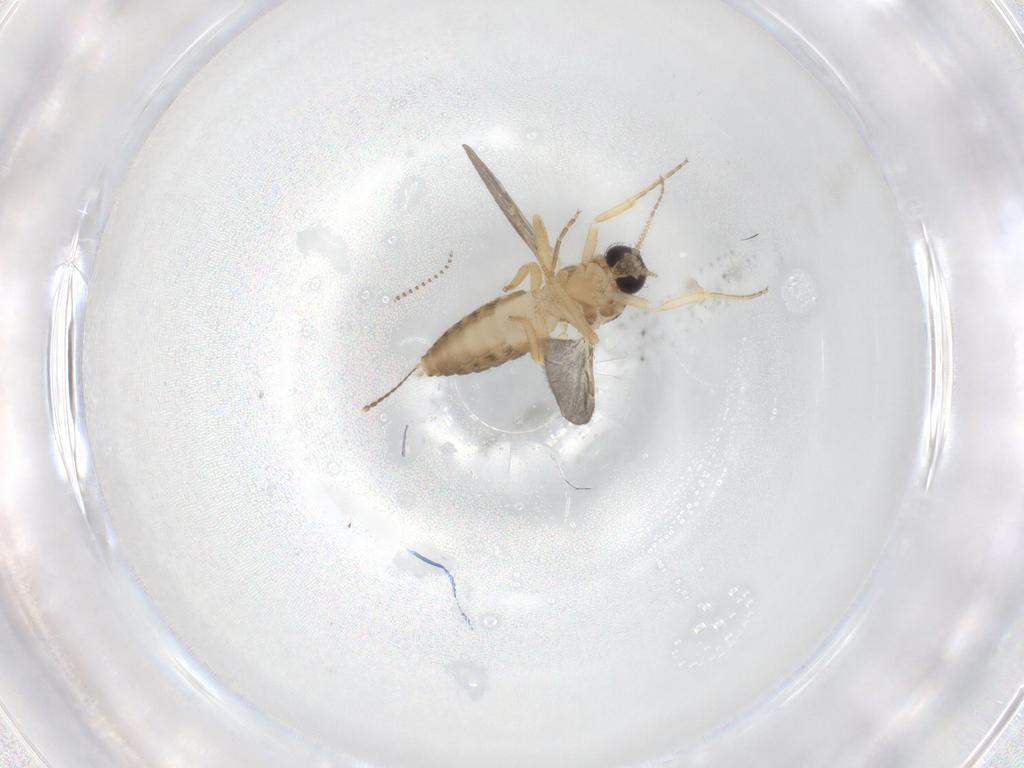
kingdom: Animalia
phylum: Arthropoda
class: Insecta
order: Diptera
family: Ceratopogonidae
